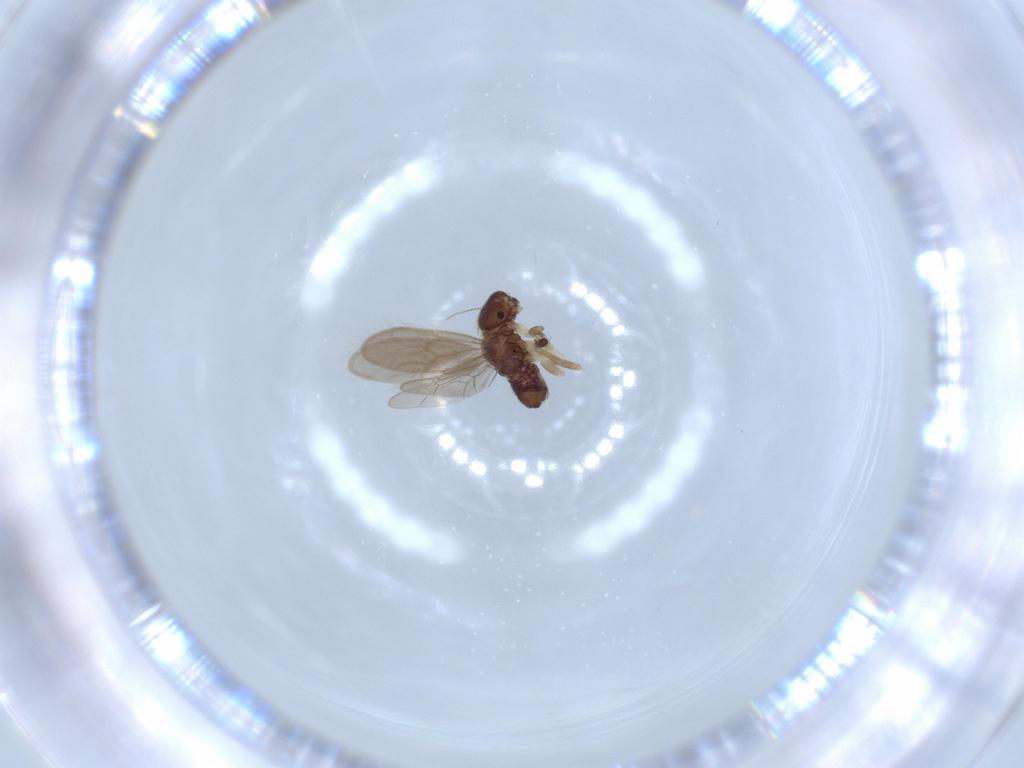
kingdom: Animalia
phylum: Arthropoda
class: Insecta
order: Psocodea
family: Archipsocidae
